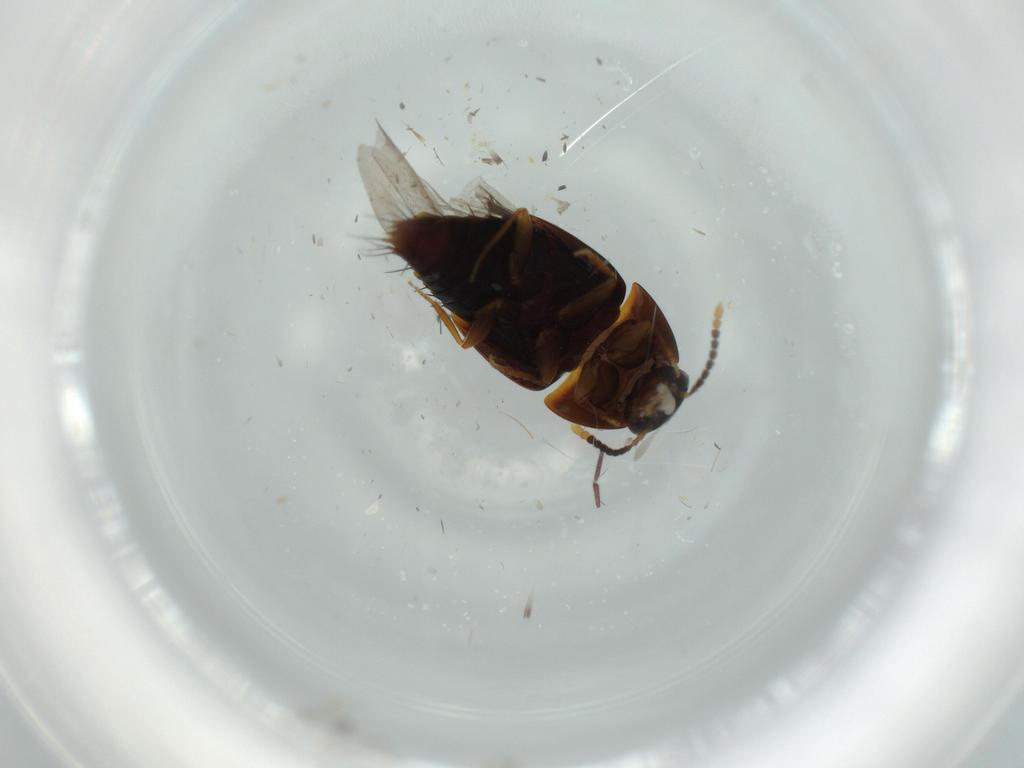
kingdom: Animalia
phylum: Arthropoda
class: Insecta
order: Coleoptera
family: Staphylinidae
